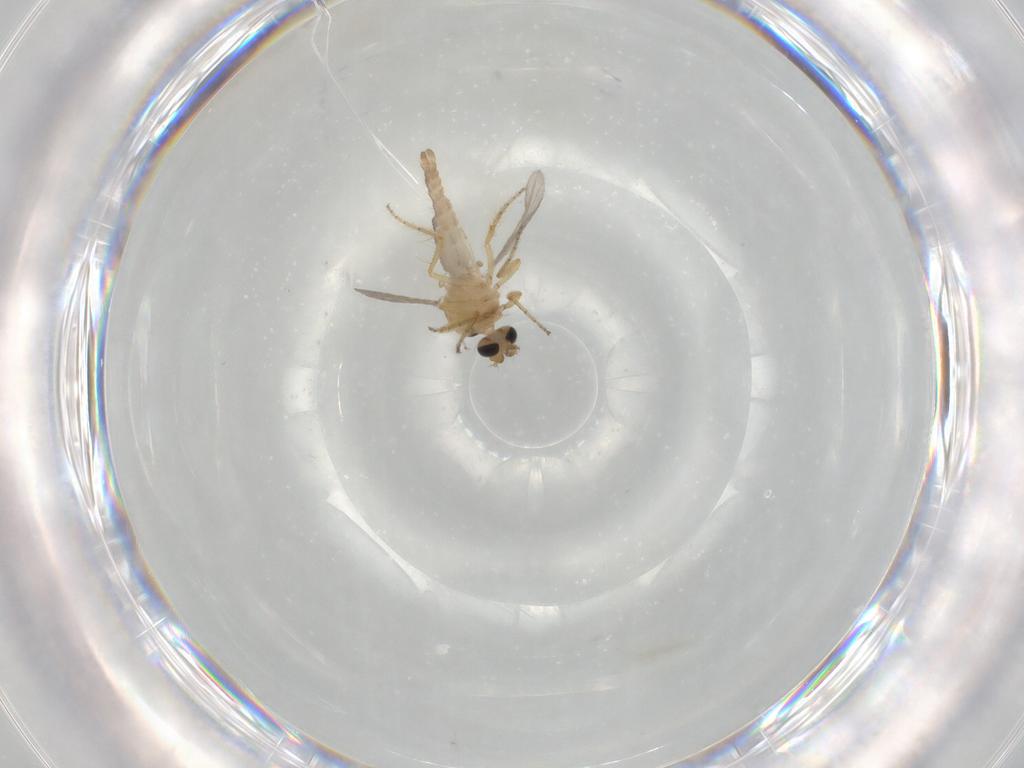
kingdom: Animalia
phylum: Arthropoda
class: Insecta
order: Diptera
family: Ceratopogonidae
